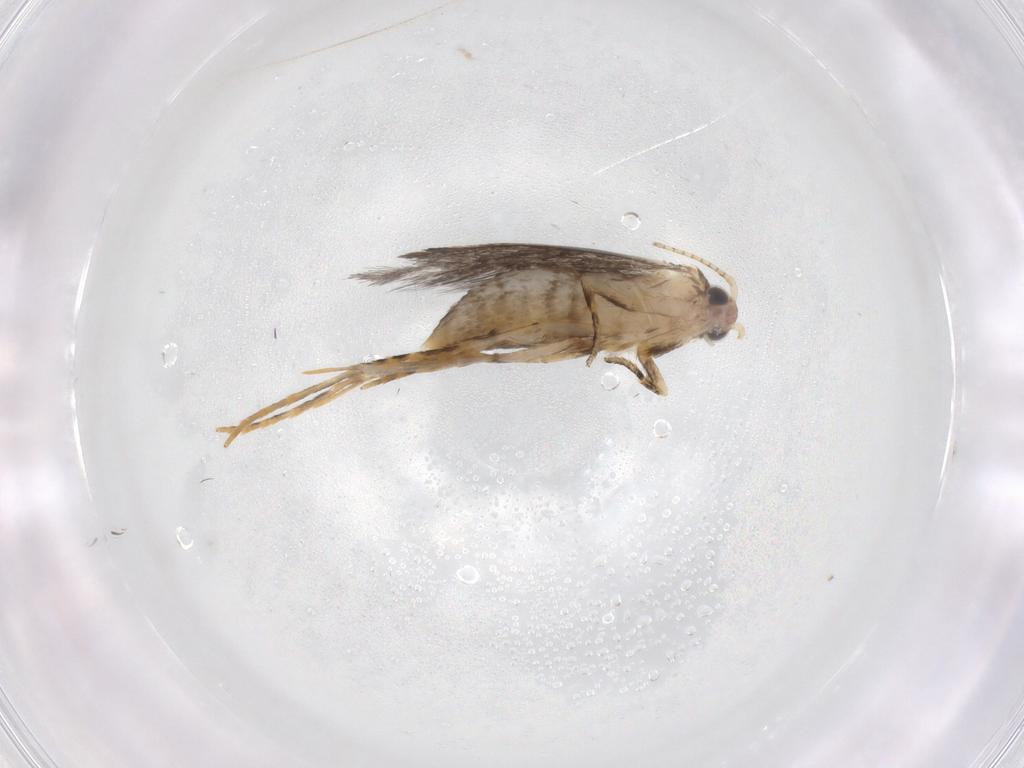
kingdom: Animalia
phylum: Arthropoda
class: Insecta
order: Lepidoptera
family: Tineidae
